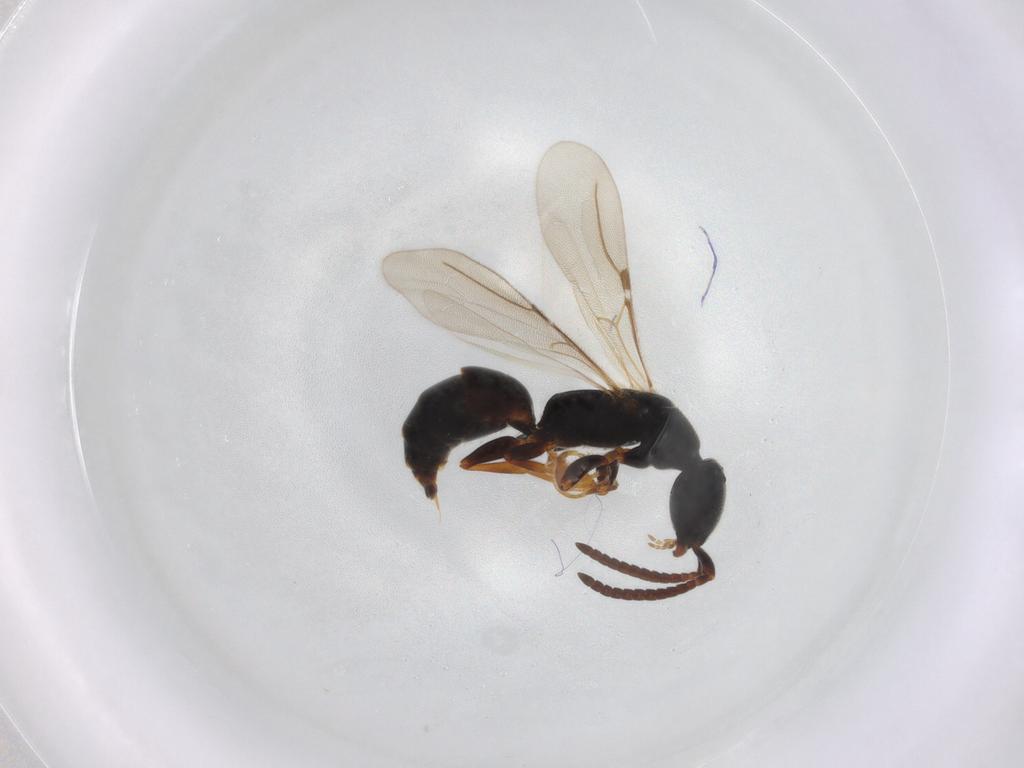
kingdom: Animalia
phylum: Arthropoda
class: Insecta
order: Hymenoptera
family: Bethylidae
